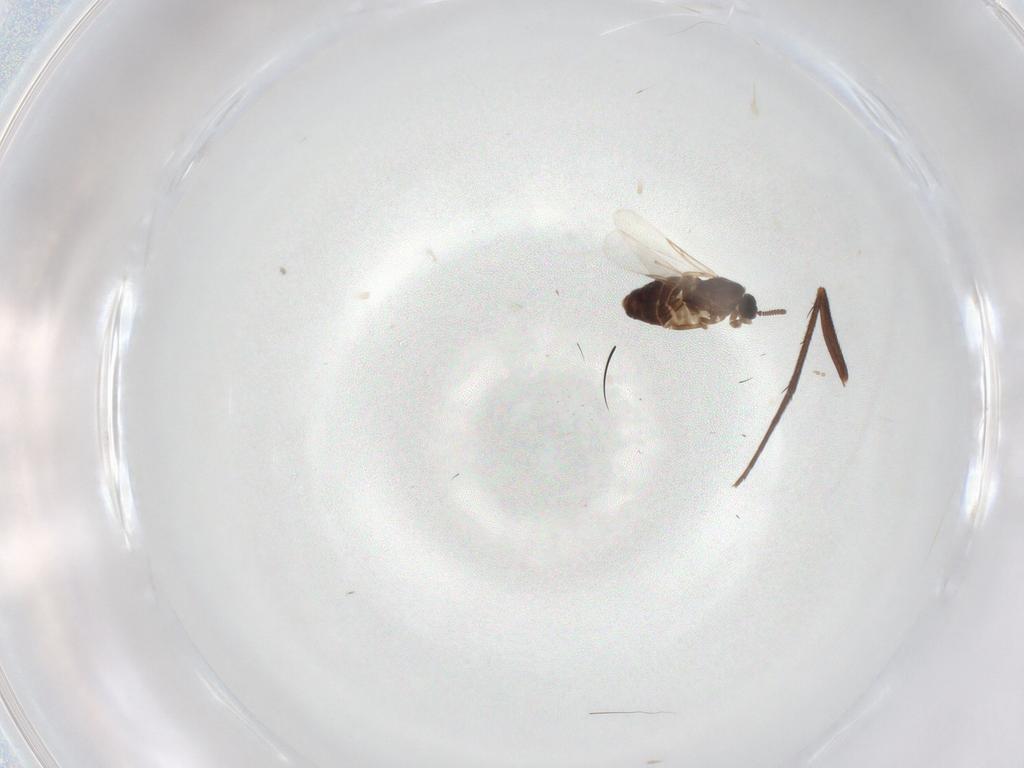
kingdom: Animalia
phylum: Arthropoda
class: Insecta
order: Diptera
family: Scatopsidae
